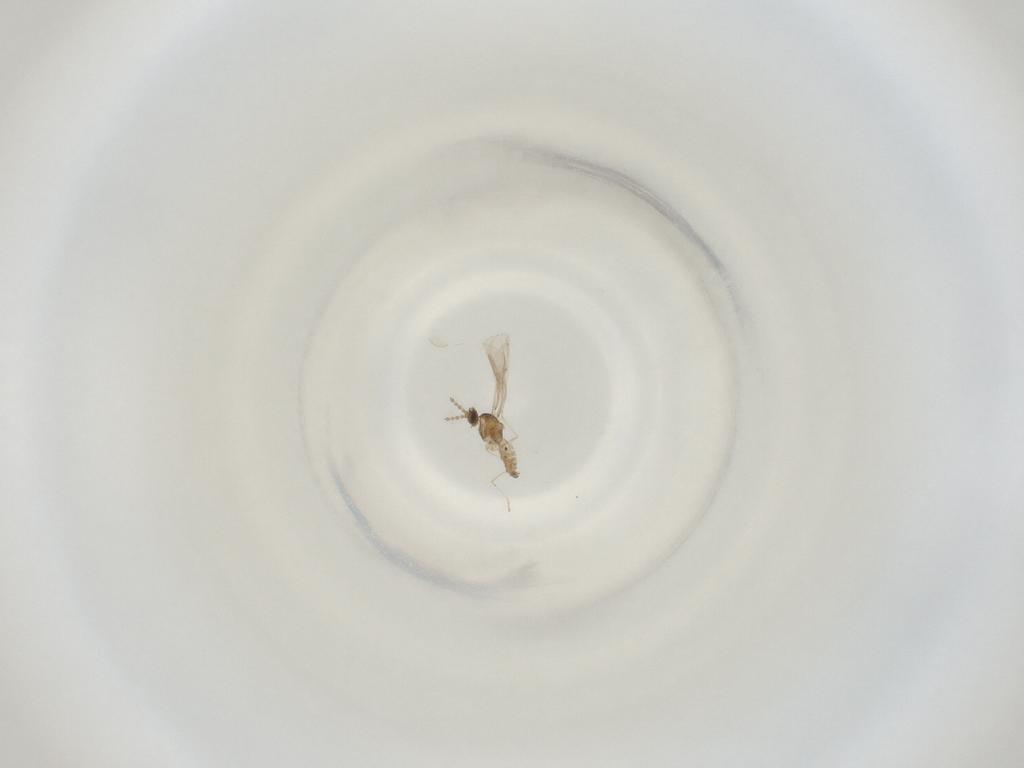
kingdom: Animalia
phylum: Arthropoda
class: Insecta
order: Diptera
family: Cecidomyiidae
